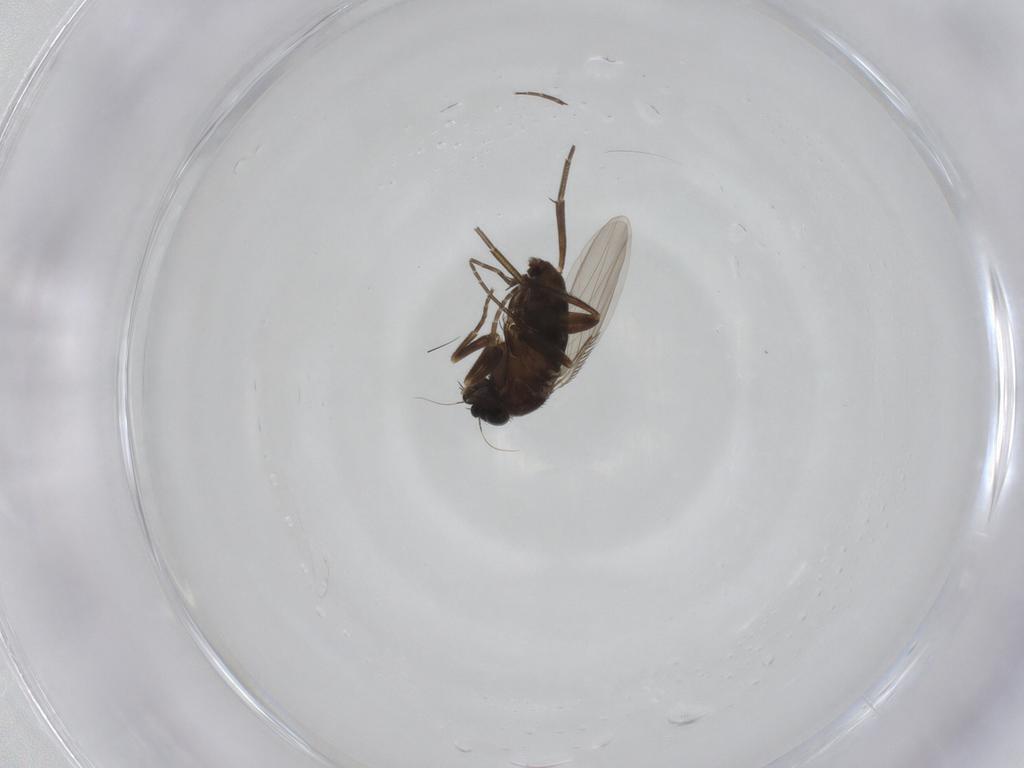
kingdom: Animalia
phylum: Arthropoda
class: Insecta
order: Diptera
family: Phoridae
